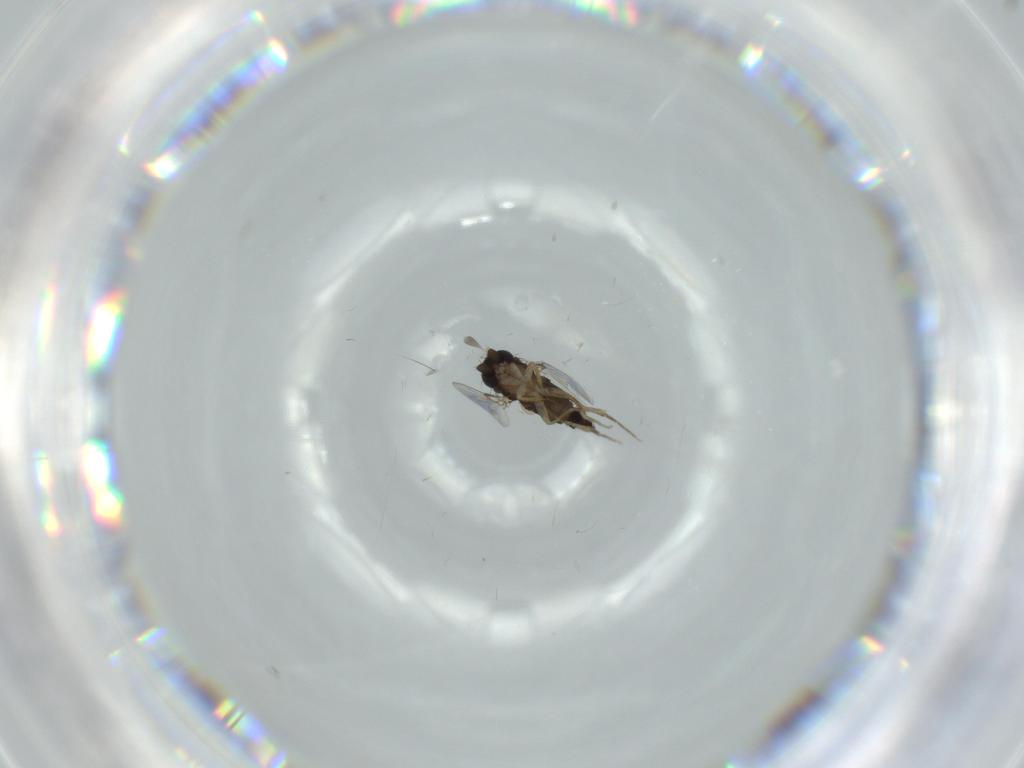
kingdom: Animalia
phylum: Arthropoda
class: Insecta
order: Diptera
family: Phoridae
